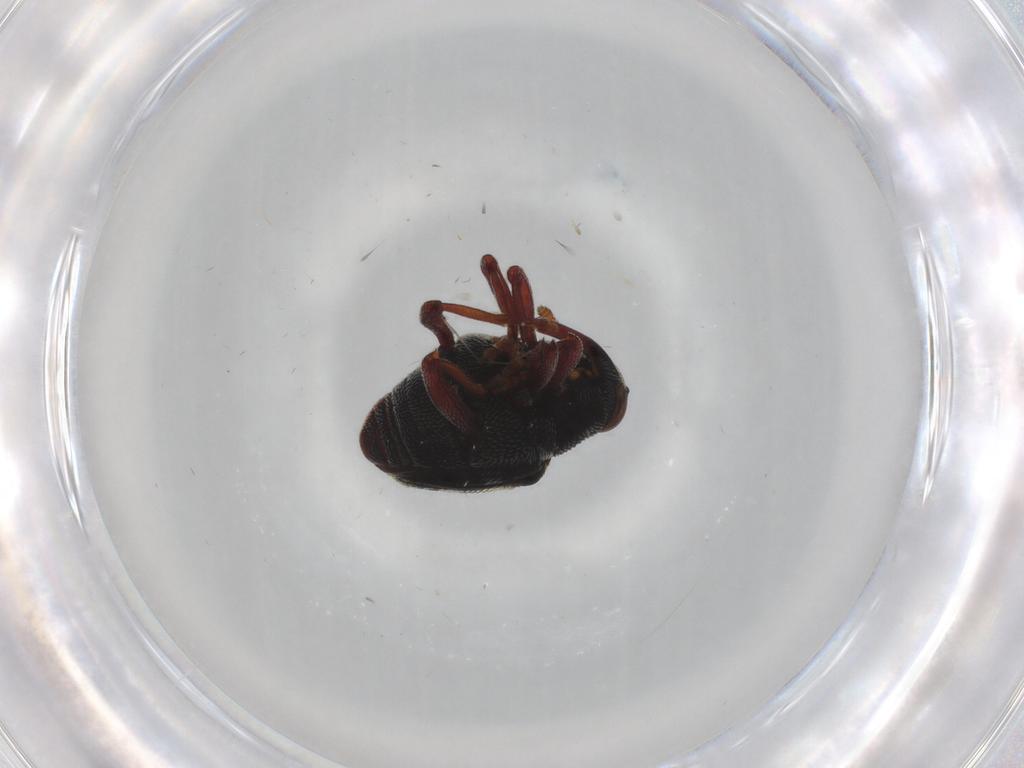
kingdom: Animalia
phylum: Arthropoda
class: Insecta
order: Coleoptera
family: Curculionidae
